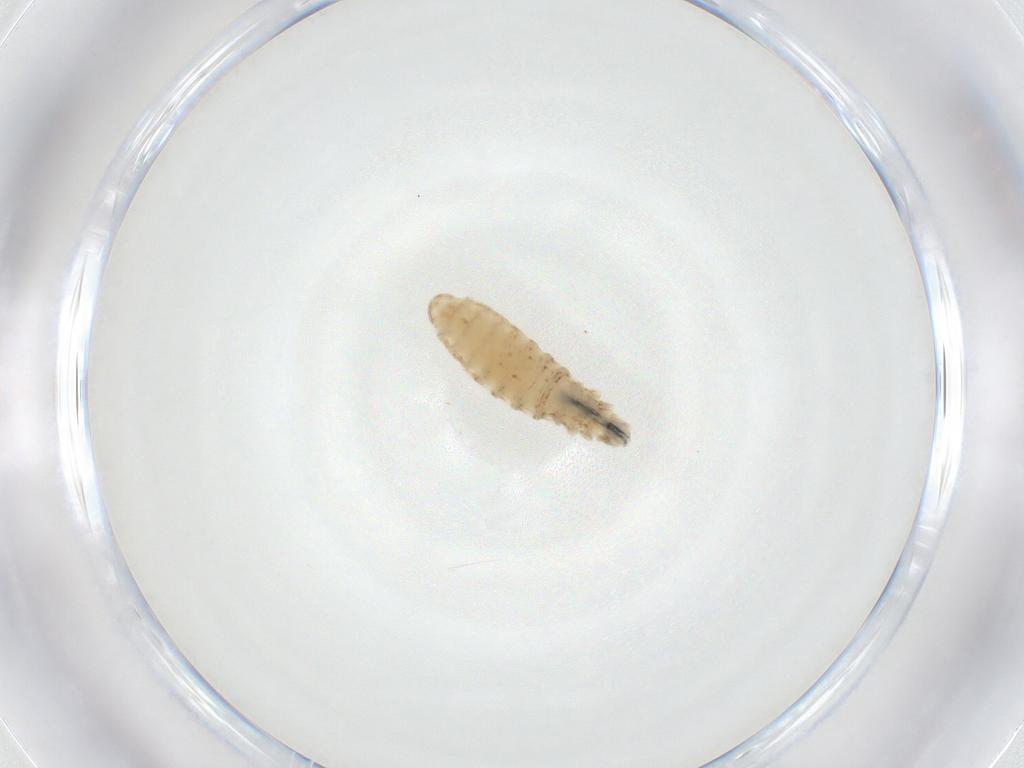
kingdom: Animalia
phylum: Arthropoda
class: Insecta
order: Diptera
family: Sarcophagidae
